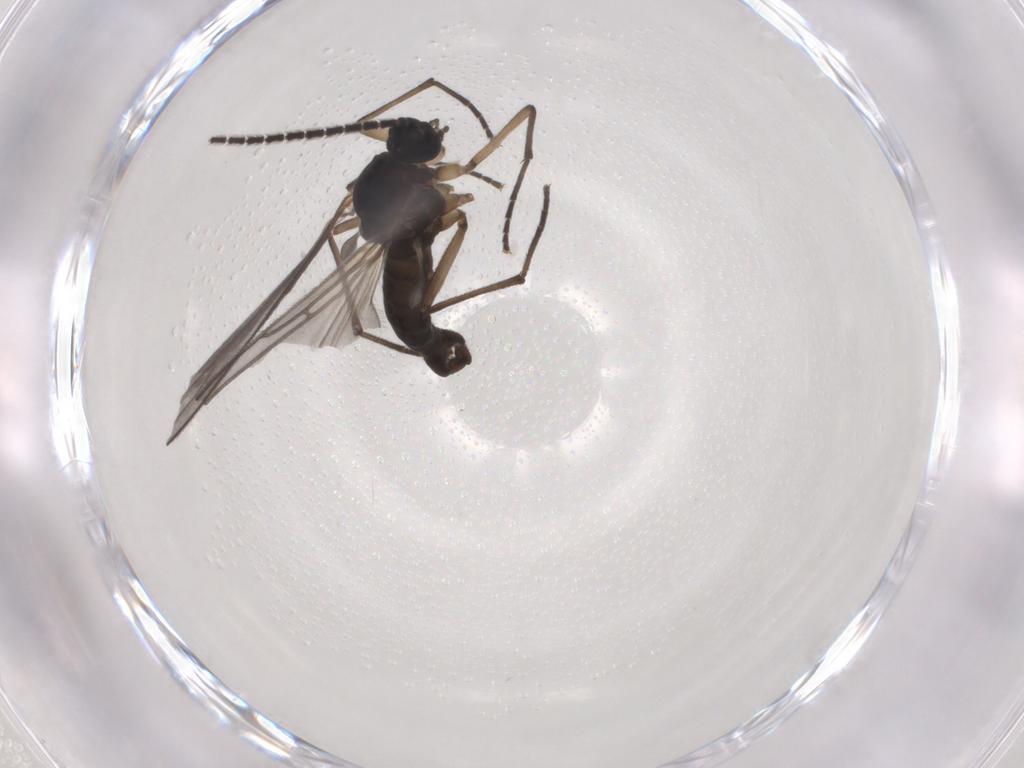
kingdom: Animalia
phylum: Arthropoda
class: Insecta
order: Diptera
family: Sciaridae
